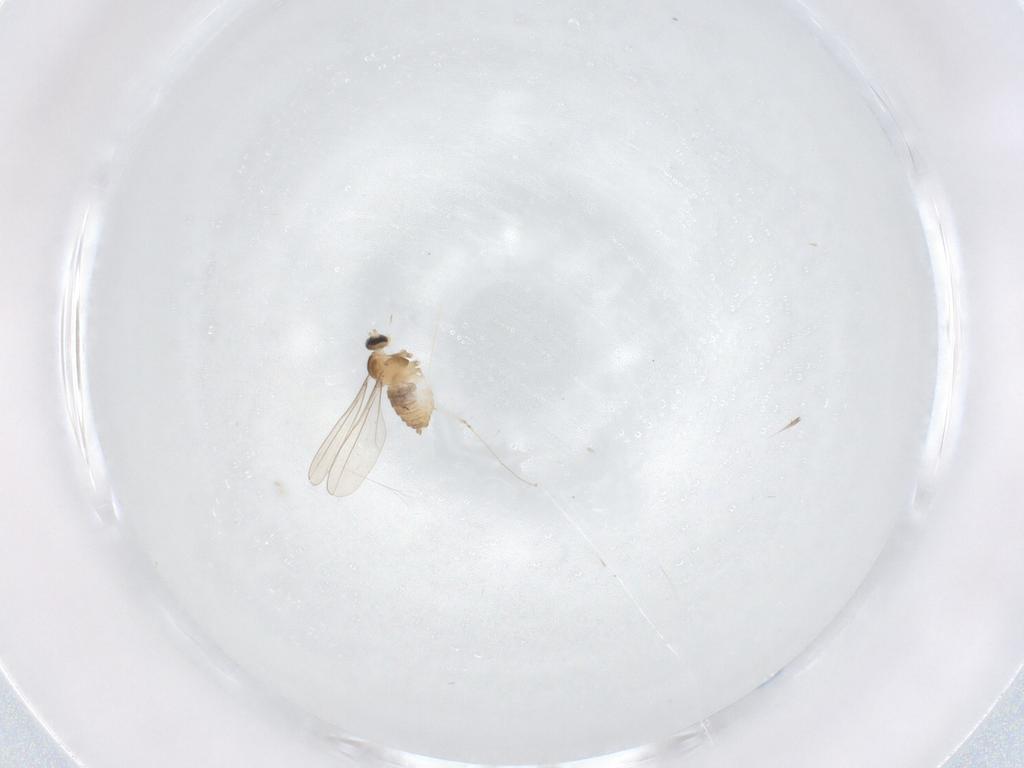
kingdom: Animalia
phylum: Arthropoda
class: Insecta
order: Diptera
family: Cecidomyiidae
